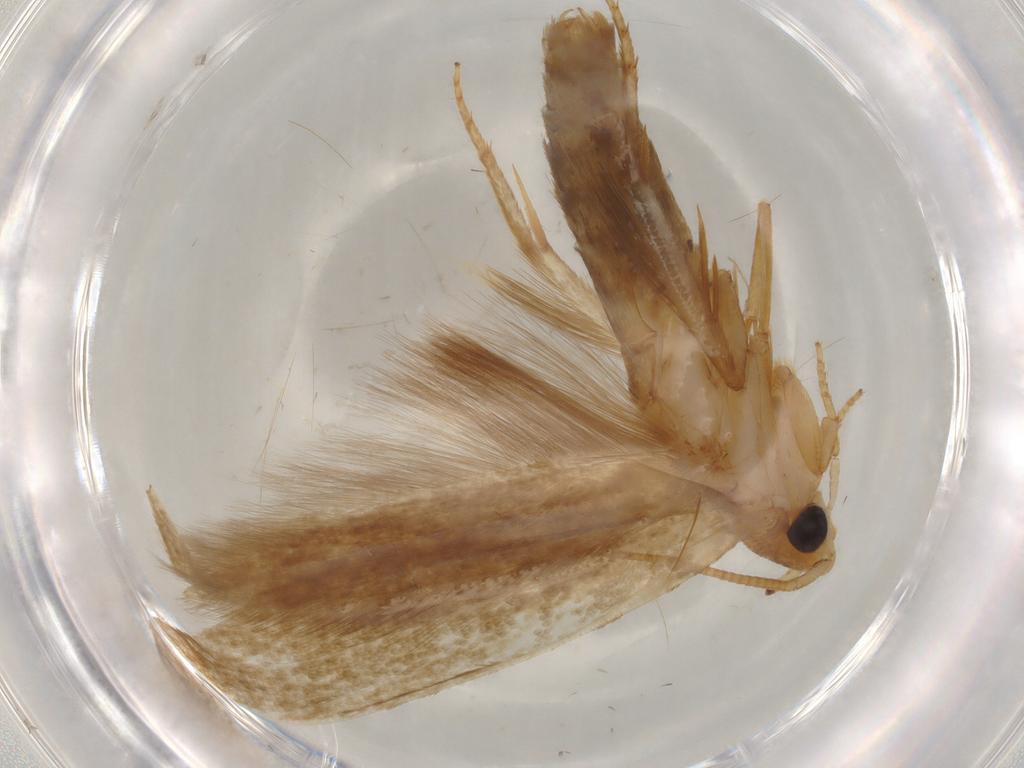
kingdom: Animalia
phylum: Arthropoda
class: Insecta
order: Lepidoptera
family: Tineidae
